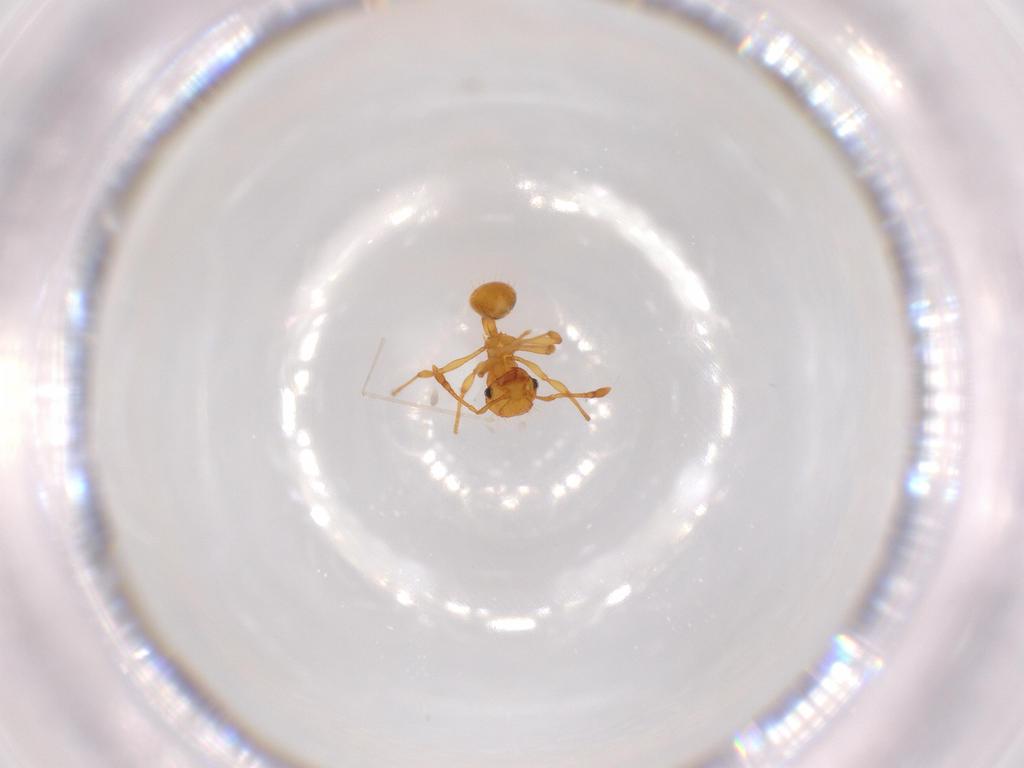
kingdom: Animalia
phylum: Arthropoda
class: Insecta
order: Hymenoptera
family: Formicidae
